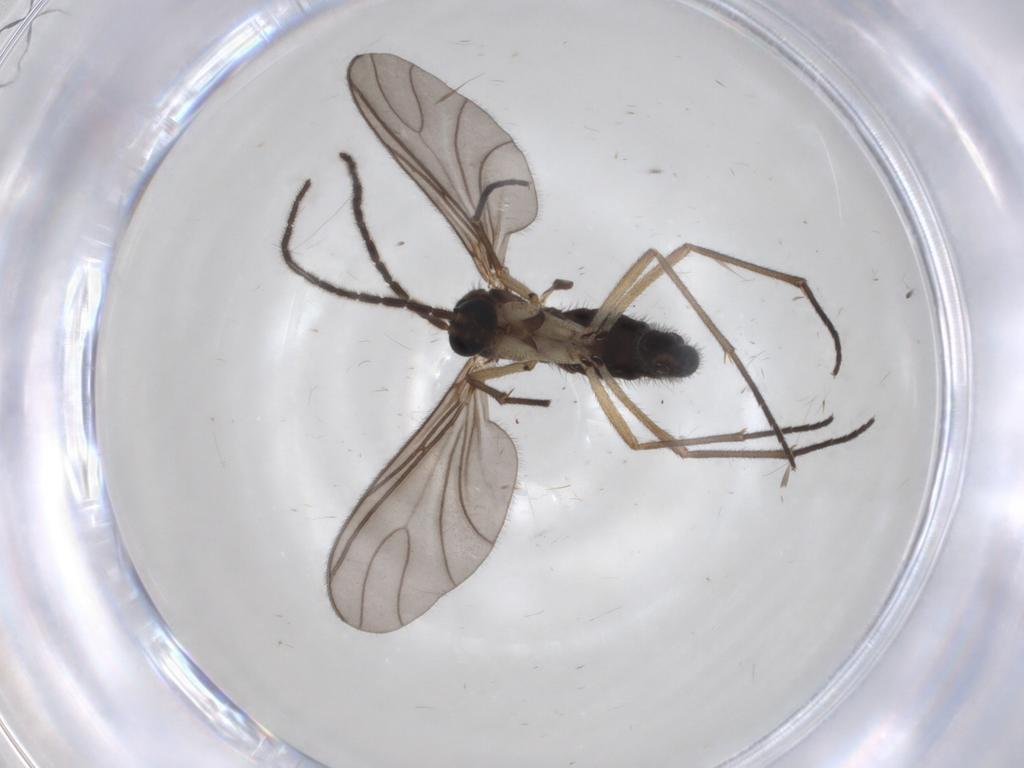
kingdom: Animalia
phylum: Arthropoda
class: Insecta
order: Diptera
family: Sciaridae
